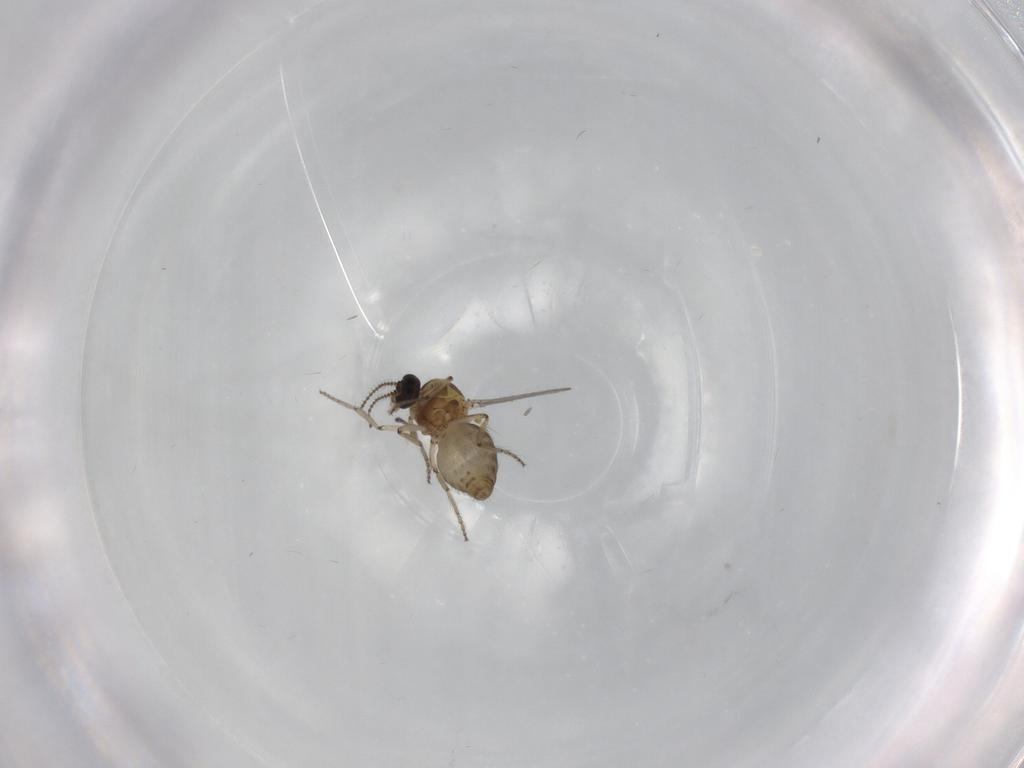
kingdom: Animalia
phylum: Arthropoda
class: Insecta
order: Diptera
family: Ceratopogonidae
